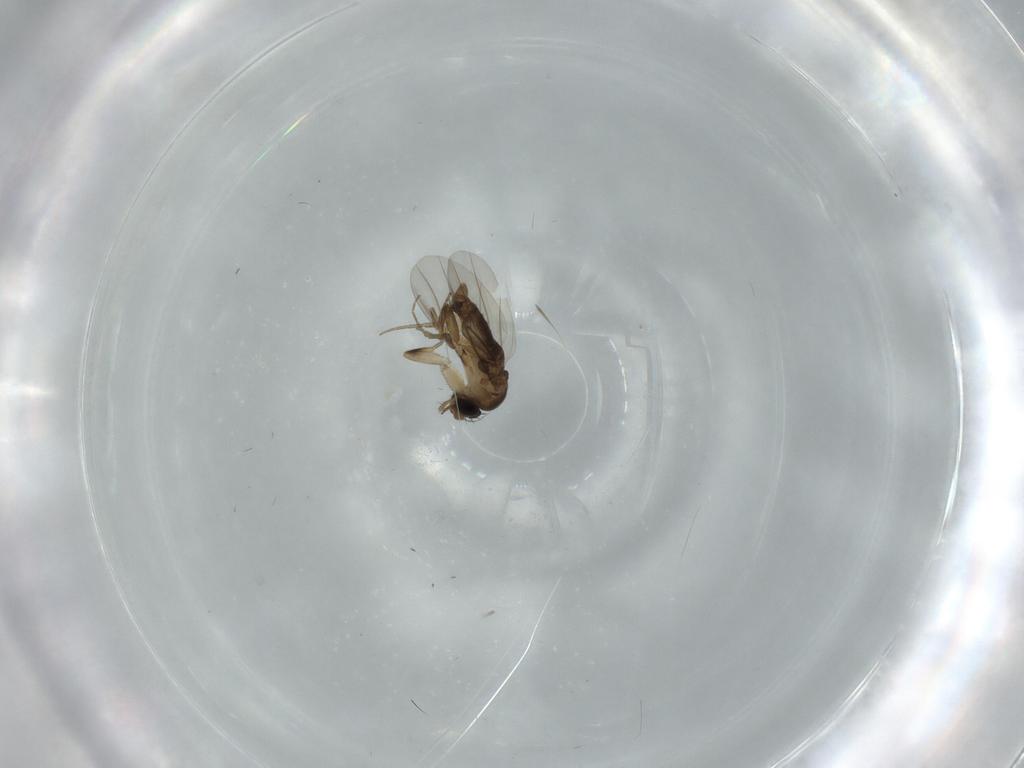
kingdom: Animalia
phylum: Arthropoda
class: Insecta
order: Diptera
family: Phoridae
